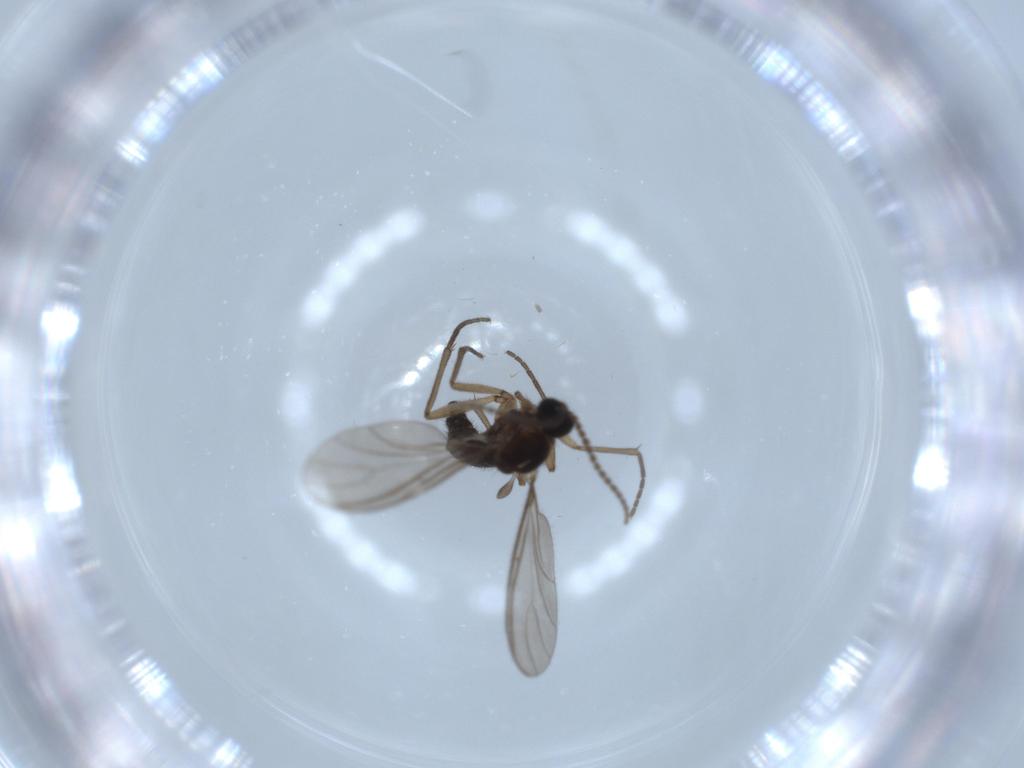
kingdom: Animalia
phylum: Arthropoda
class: Insecta
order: Diptera
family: Sciaridae
